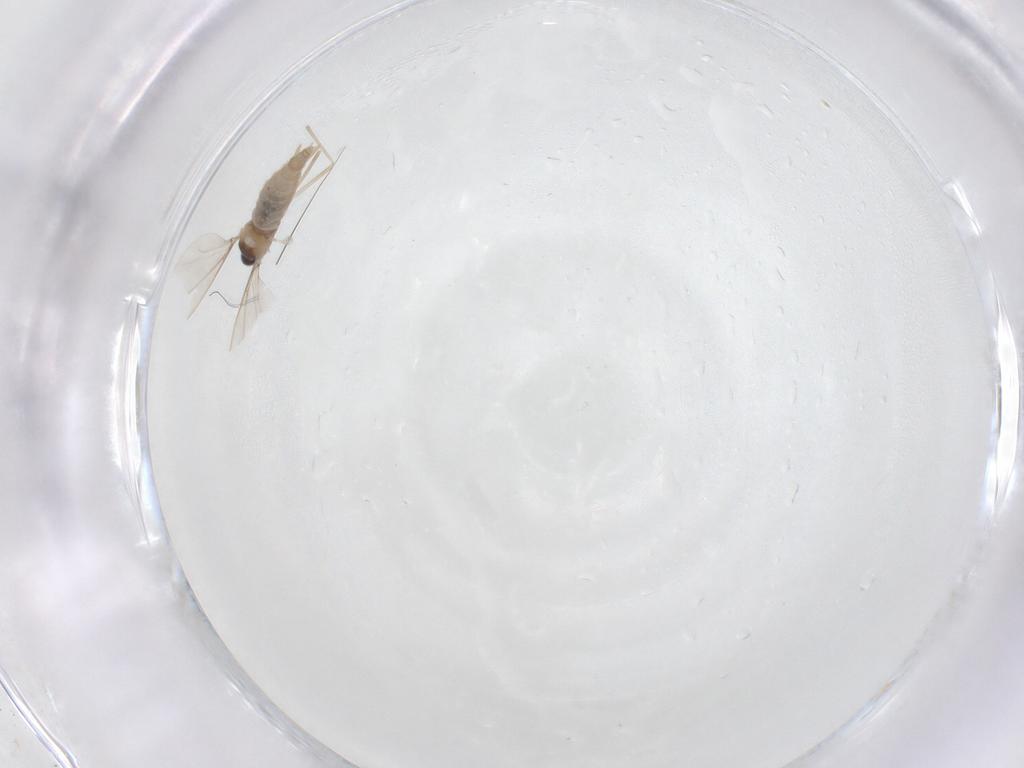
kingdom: Animalia
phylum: Arthropoda
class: Insecta
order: Diptera
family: Cecidomyiidae
